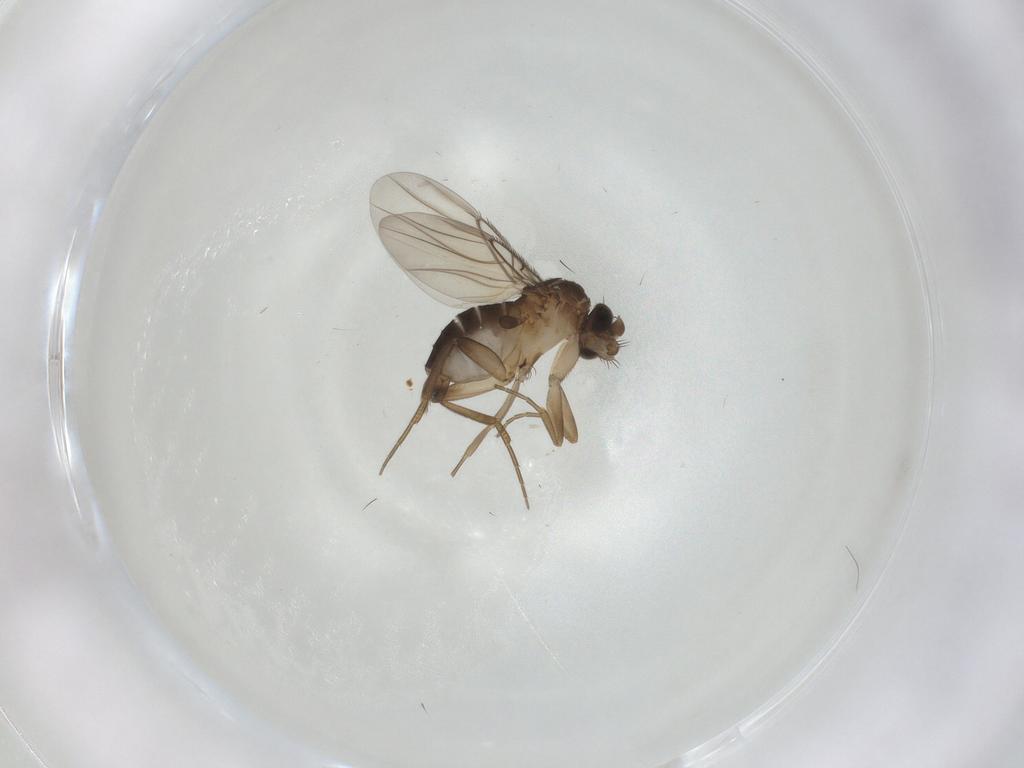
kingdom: Animalia
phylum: Arthropoda
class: Insecta
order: Diptera
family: Phoridae
